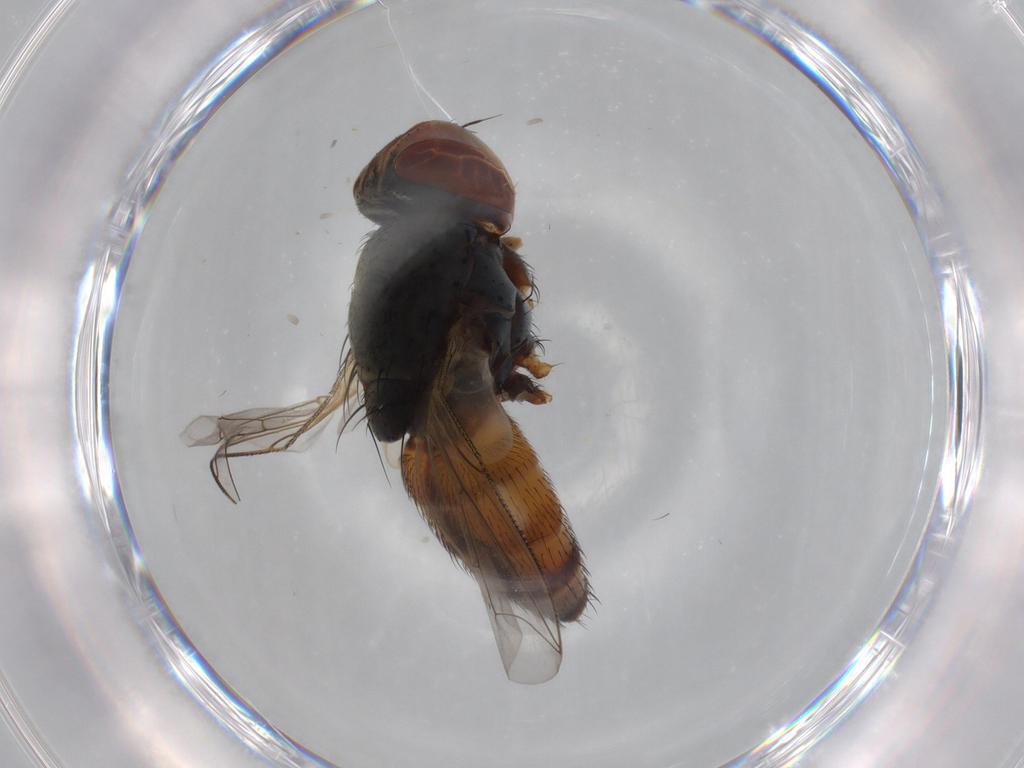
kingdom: Animalia
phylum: Arthropoda
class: Insecta
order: Diptera
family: Sarcophagidae
